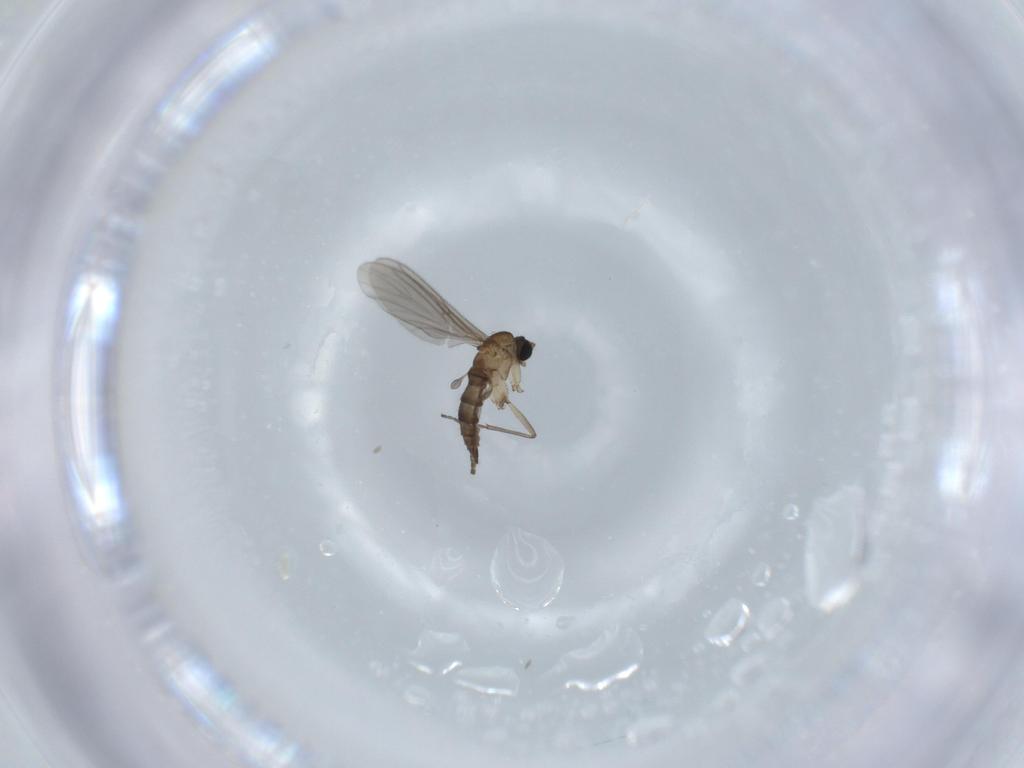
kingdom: Animalia
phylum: Arthropoda
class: Insecta
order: Diptera
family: Sciaridae
